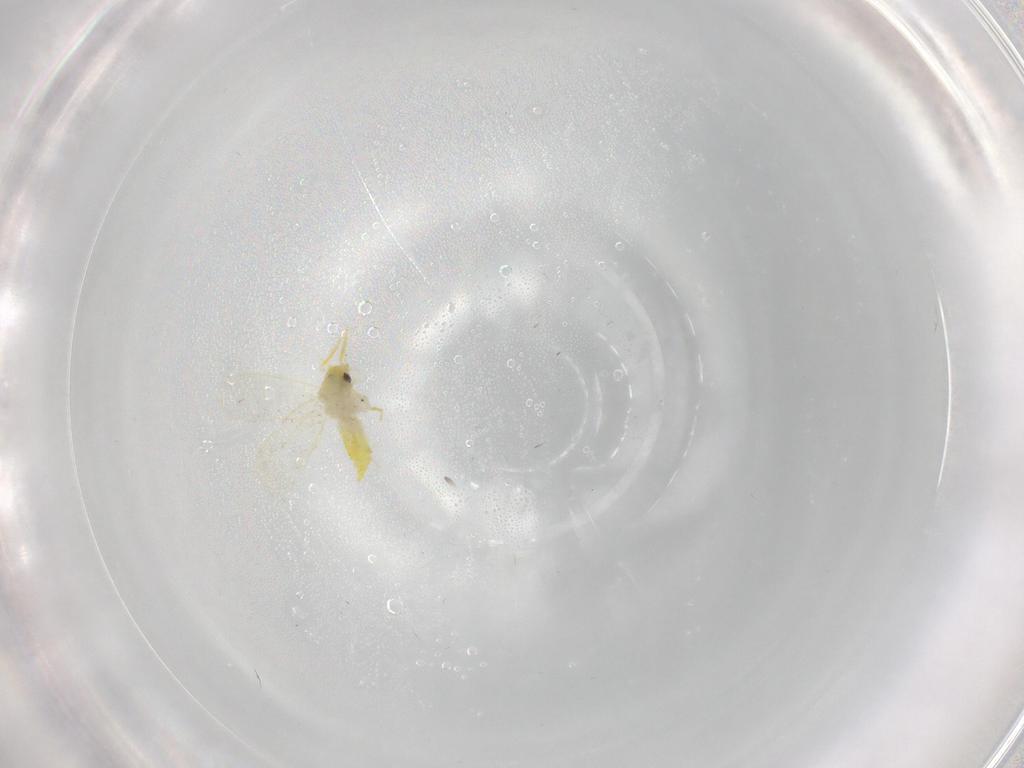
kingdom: Animalia
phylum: Arthropoda
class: Insecta
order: Hemiptera
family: Aleyrodidae
